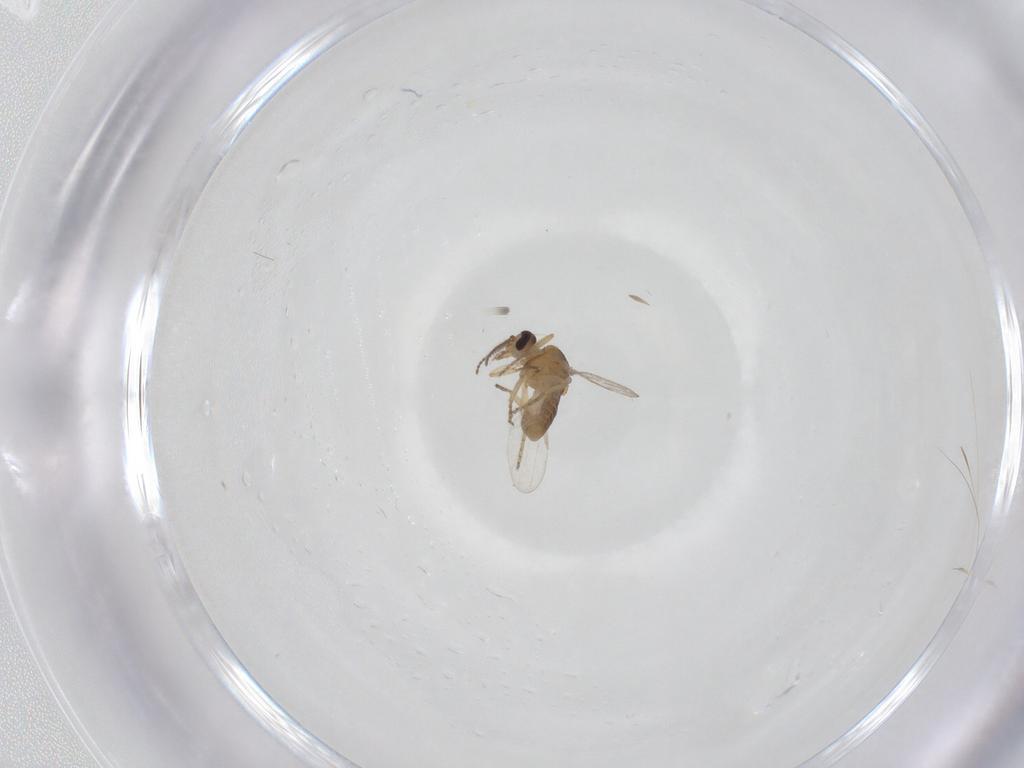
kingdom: Animalia
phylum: Arthropoda
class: Insecta
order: Diptera
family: Ceratopogonidae
